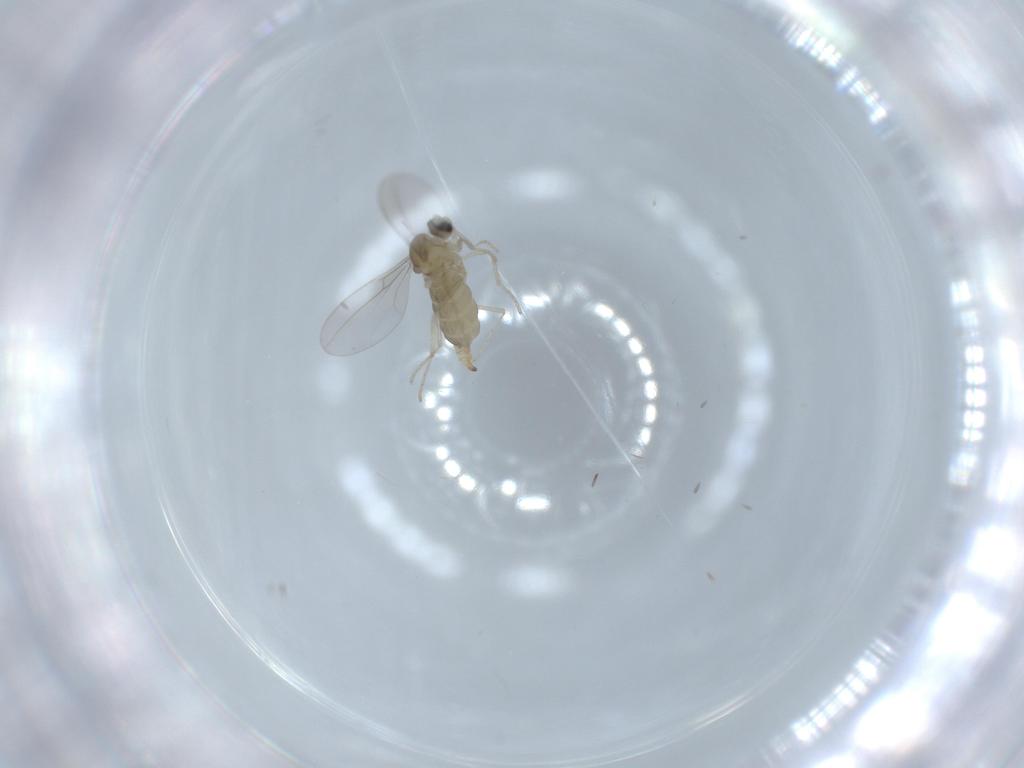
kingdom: Animalia
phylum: Arthropoda
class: Insecta
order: Diptera
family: Cecidomyiidae
